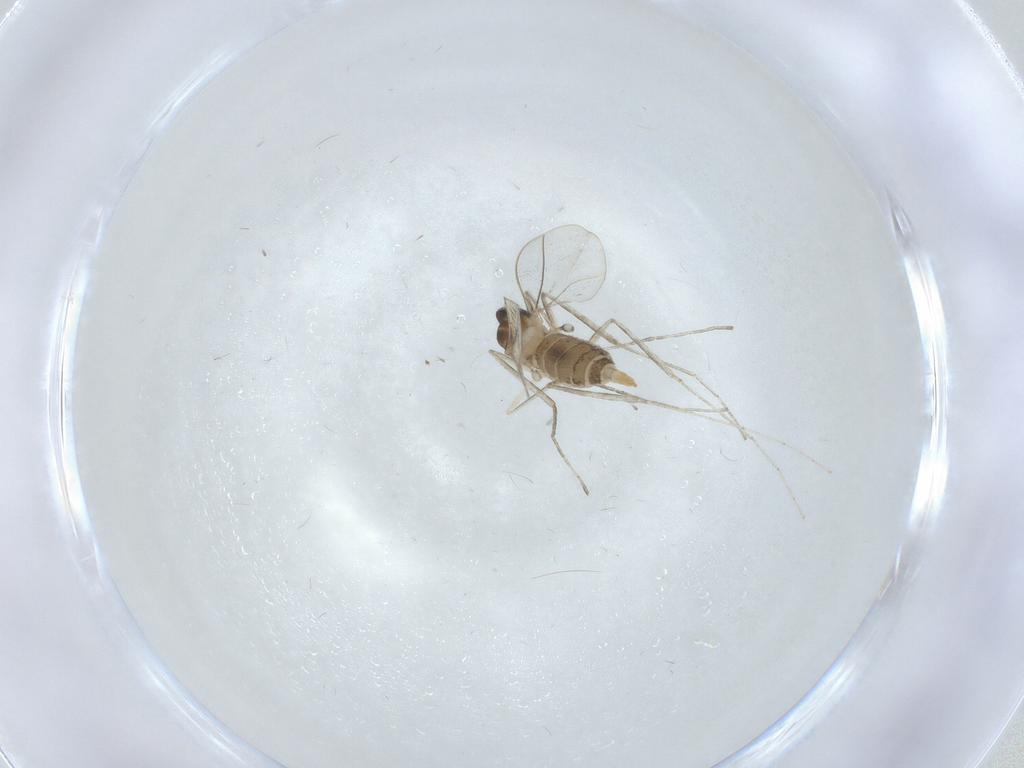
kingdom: Animalia
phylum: Arthropoda
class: Insecta
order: Diptera
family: Cecidomyiidae
